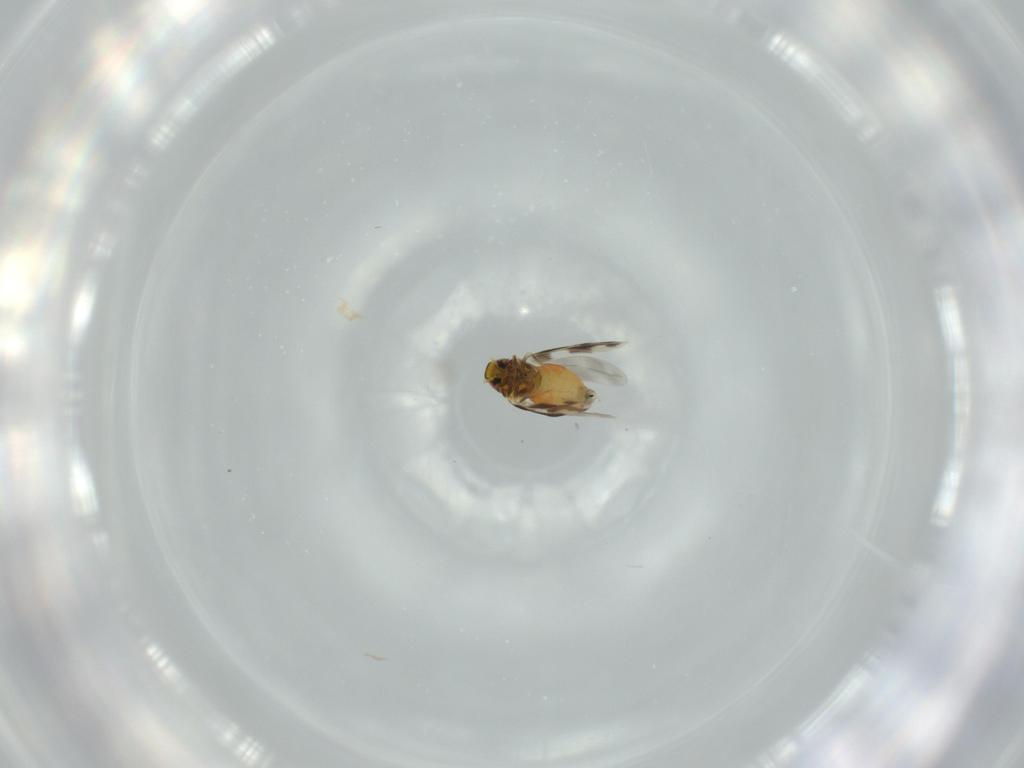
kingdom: Animalia
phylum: Arthropoda
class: Insecta
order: Hemiptera
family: Aleyrodidae
